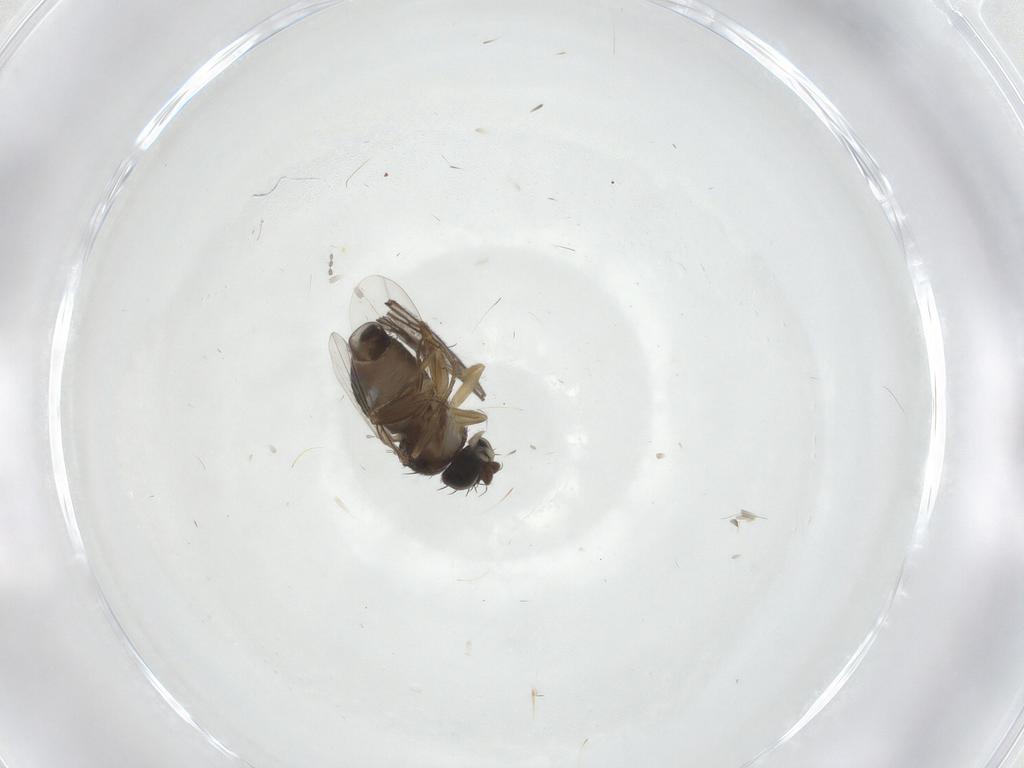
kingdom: Animalia
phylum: Arthropoda
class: Insecta
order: Diptera
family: Phoridae
